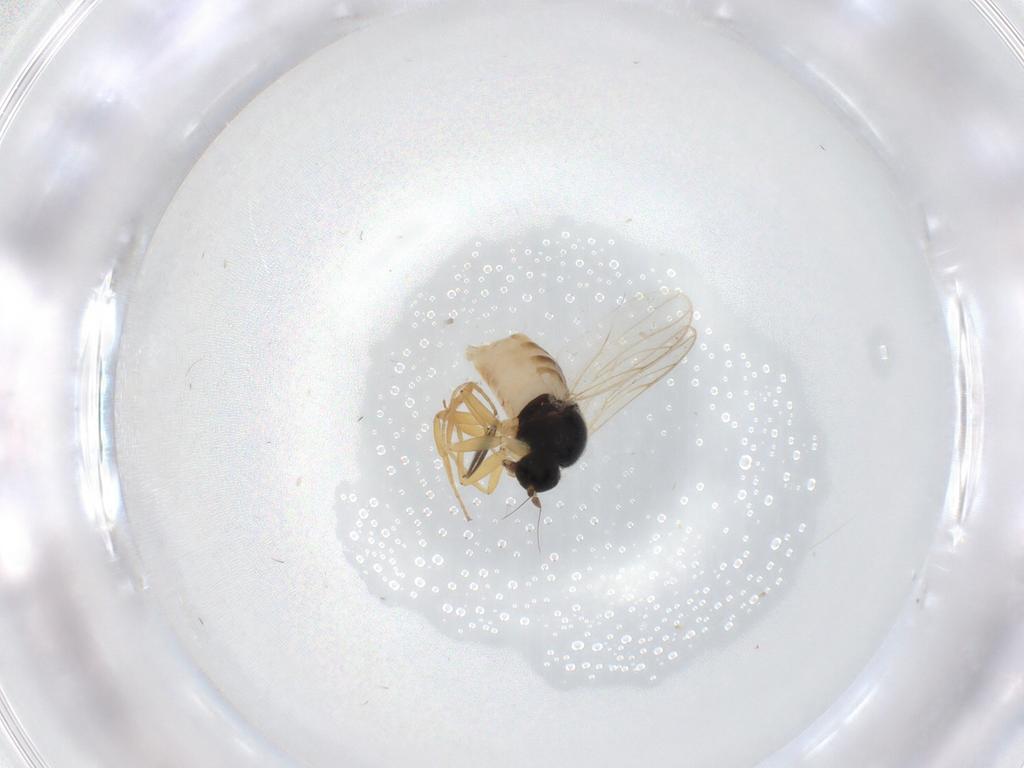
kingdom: Animalia
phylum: Arthropoda
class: Insecta
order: Diptera
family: Ceratopogonidae
